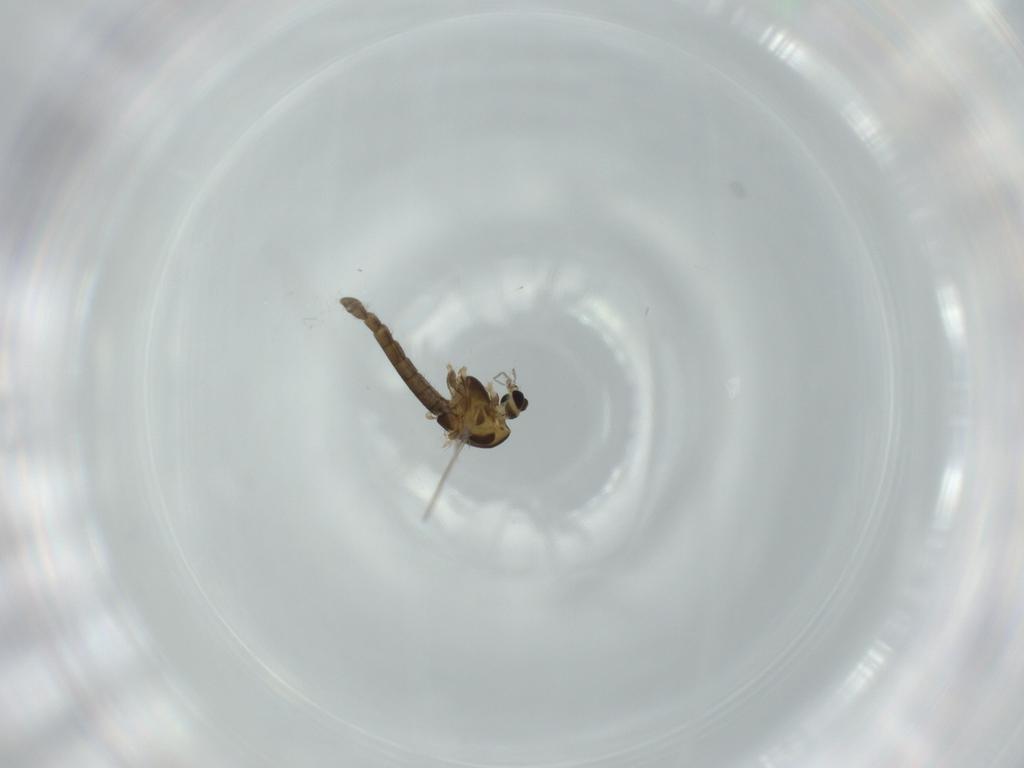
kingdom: Animalia
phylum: Arthropoda
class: Insecta
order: Diptera
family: Chironomidae
